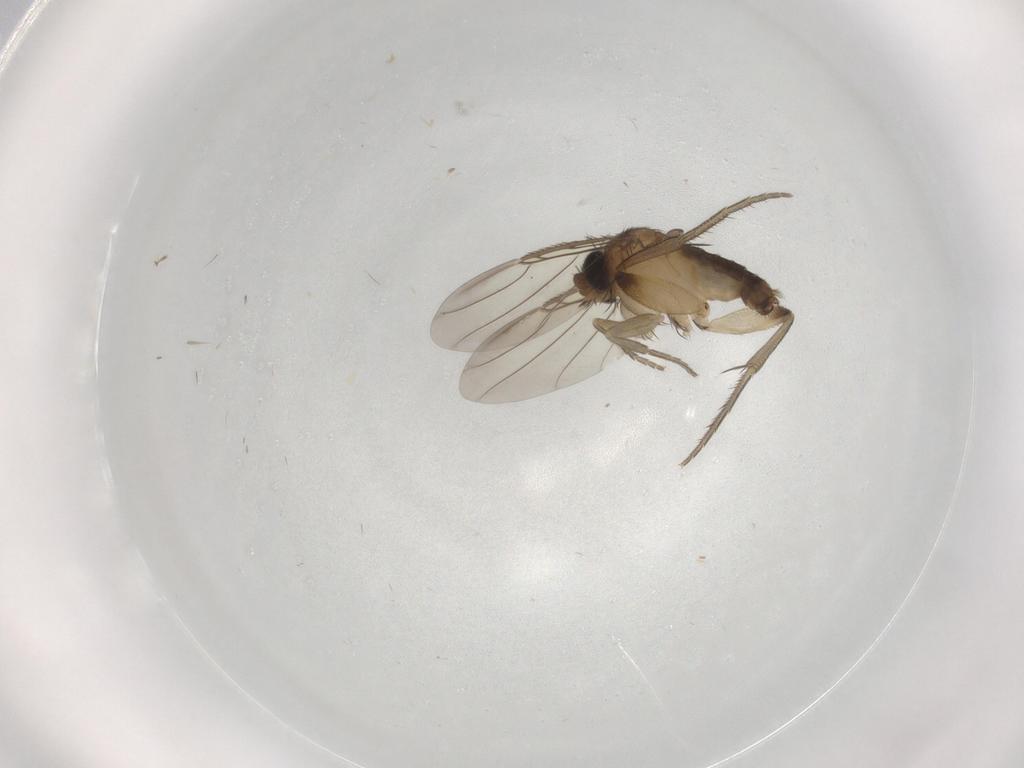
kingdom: Animalia
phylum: Arthropoda
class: Insecta
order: Diptera
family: Phoridae
